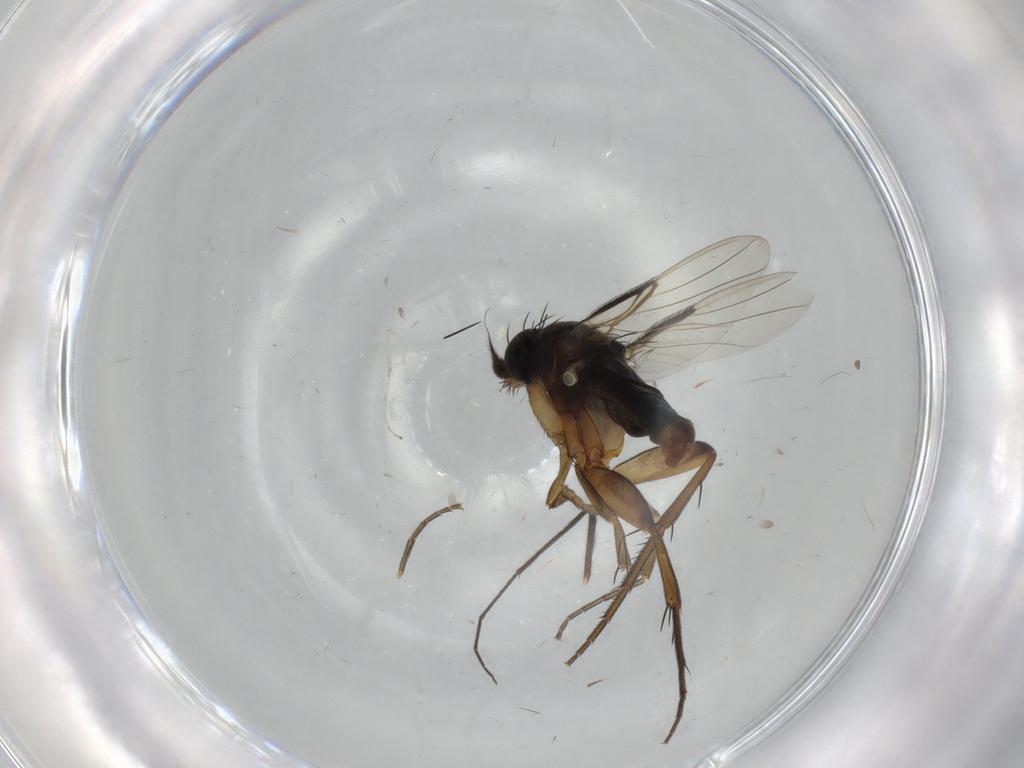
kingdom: Animalia
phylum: Arthropoda
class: Insecta
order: Diptera
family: Phoridae
